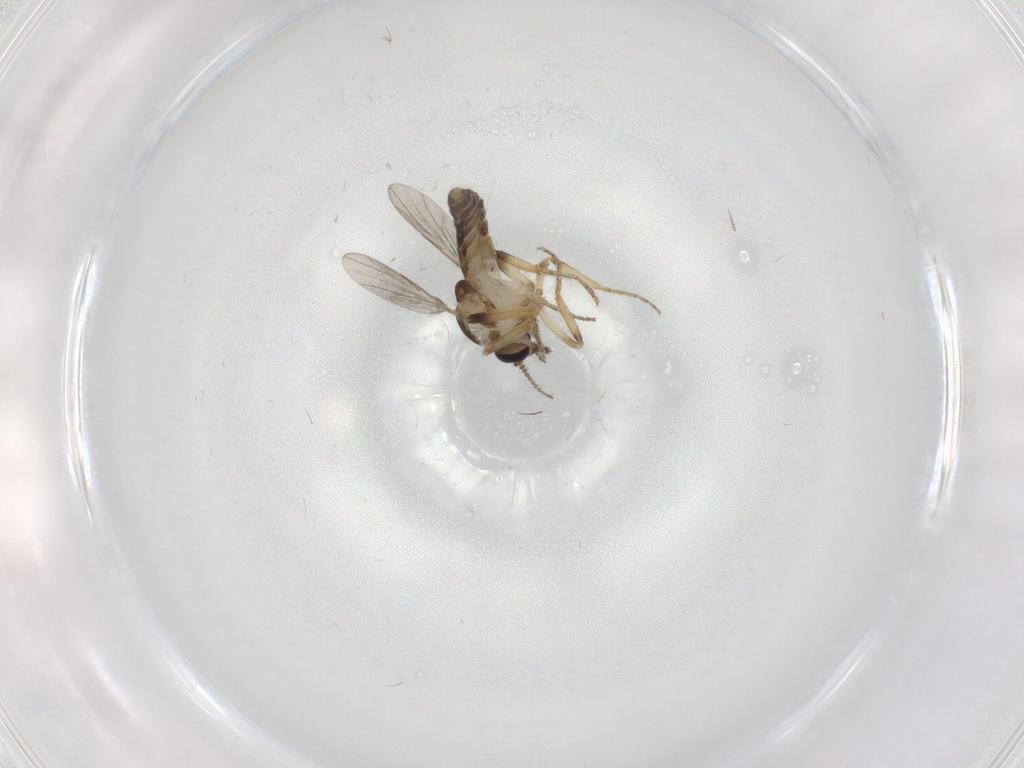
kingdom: Animalia
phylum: Arthropoda
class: Insecta
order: Diptera
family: Ceratopogonidae
